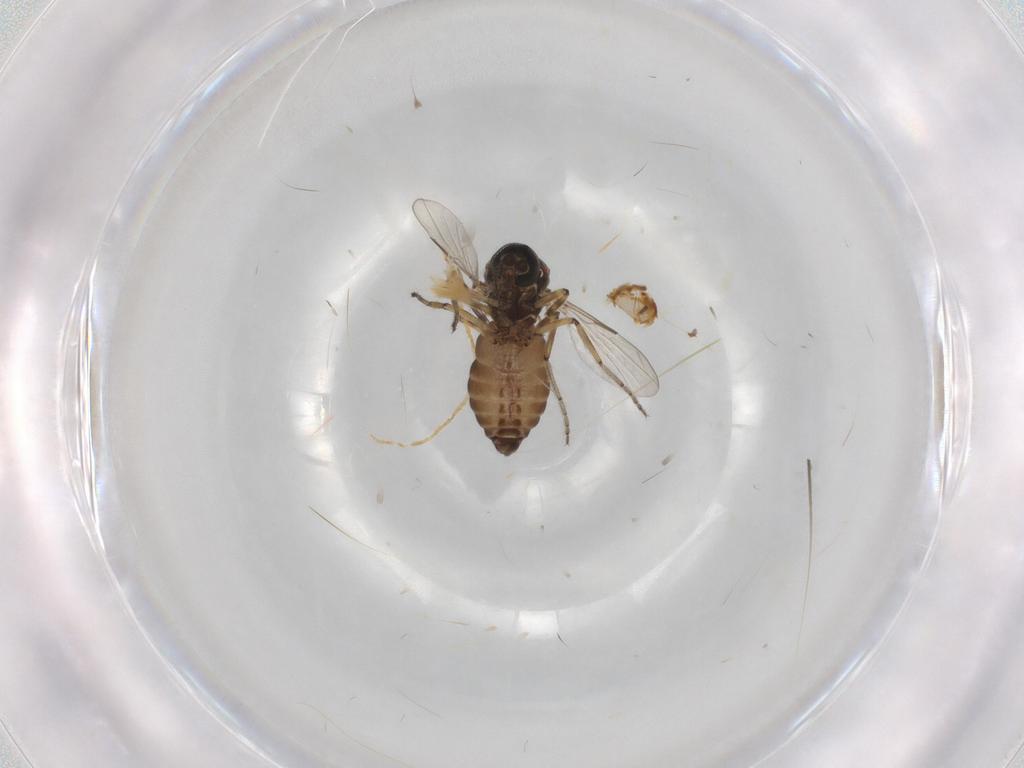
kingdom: Animalia
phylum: Arthropoda
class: Insecta
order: Diptera
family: Ceratopogonidae
